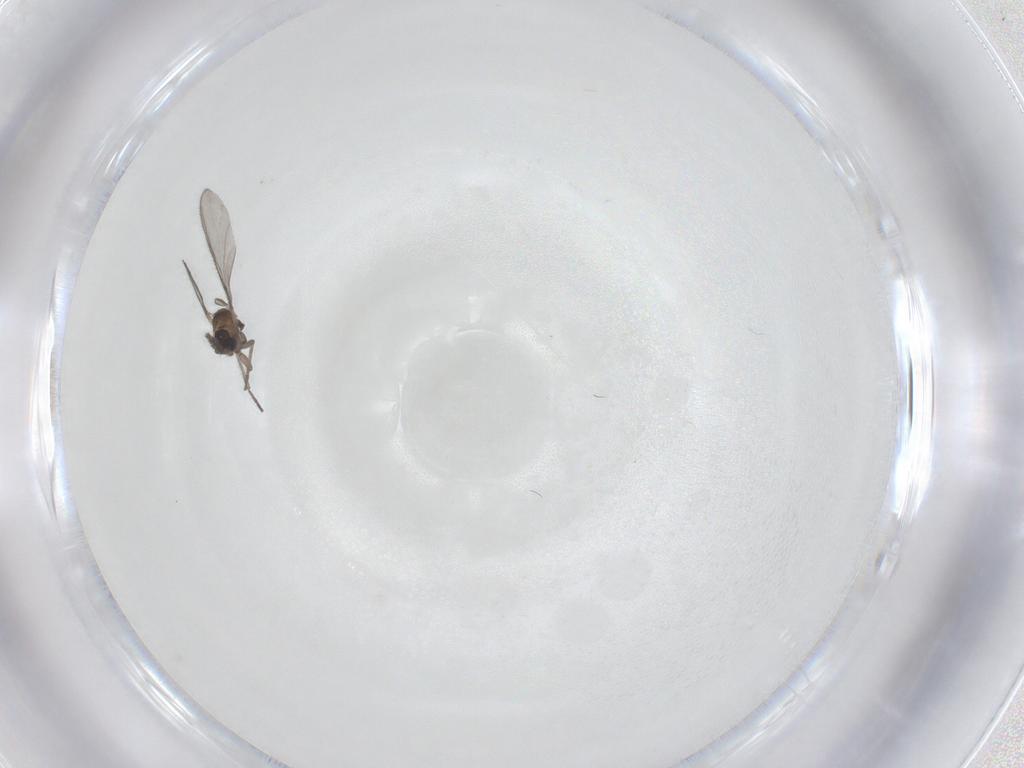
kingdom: Animalia
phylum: Arthropoda
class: Insecta
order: Diptera
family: Sciaridae
